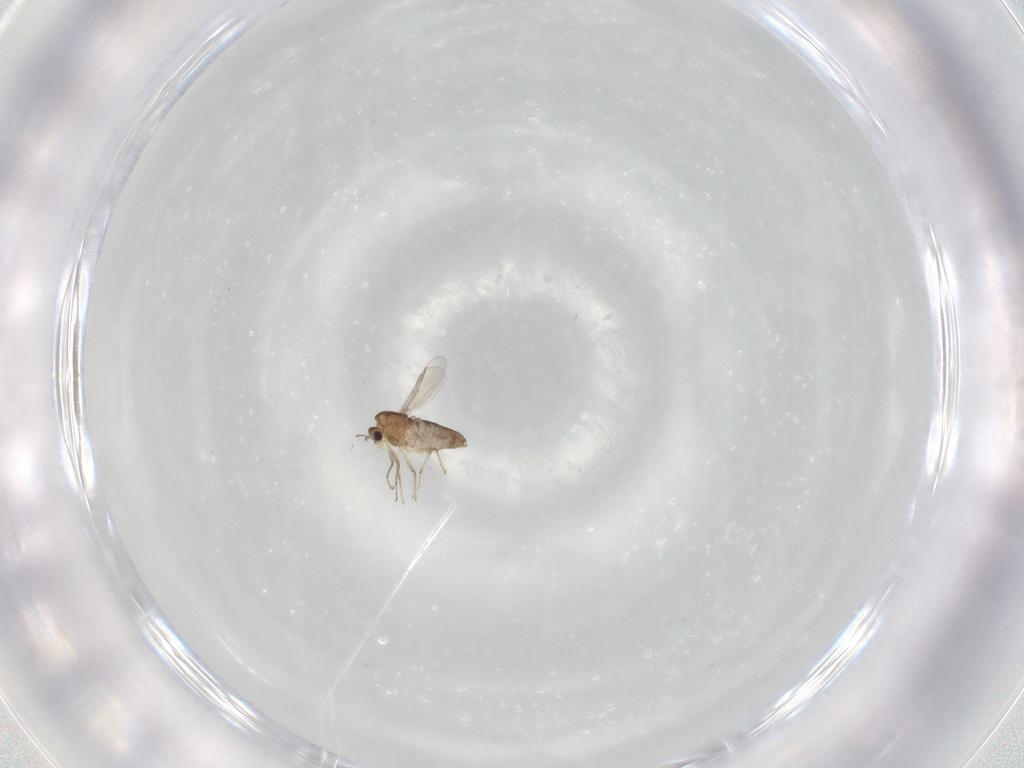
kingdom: Animalia
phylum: Arthropoda
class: Insecta
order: Diptera
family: Chironomidae
